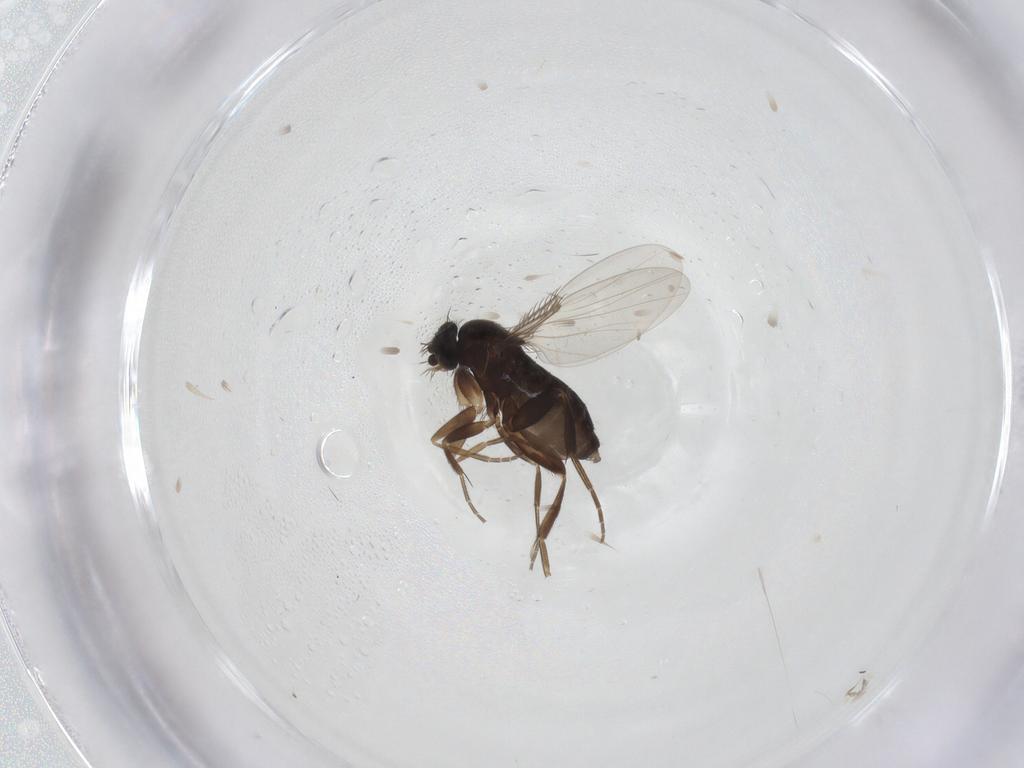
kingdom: Animalia
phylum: Arthropoda
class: Insecta
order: Diptera
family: Phoridae
